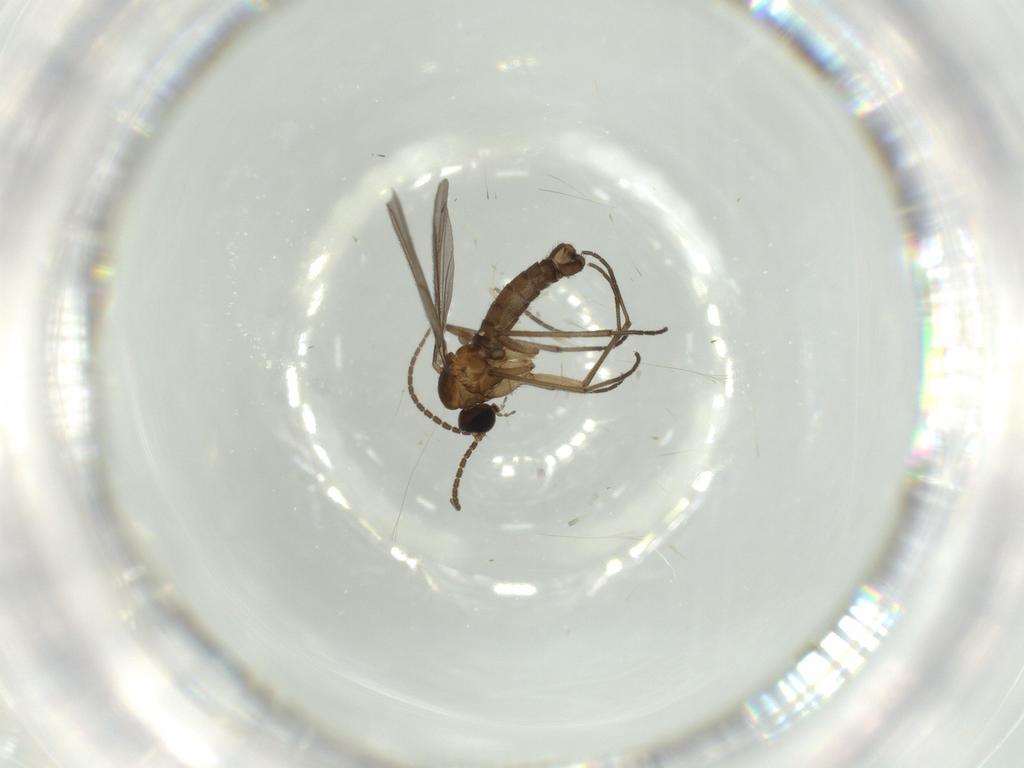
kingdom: Animalia
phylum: Arthropoda
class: Insecta
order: Diptera
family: Sciaridae
